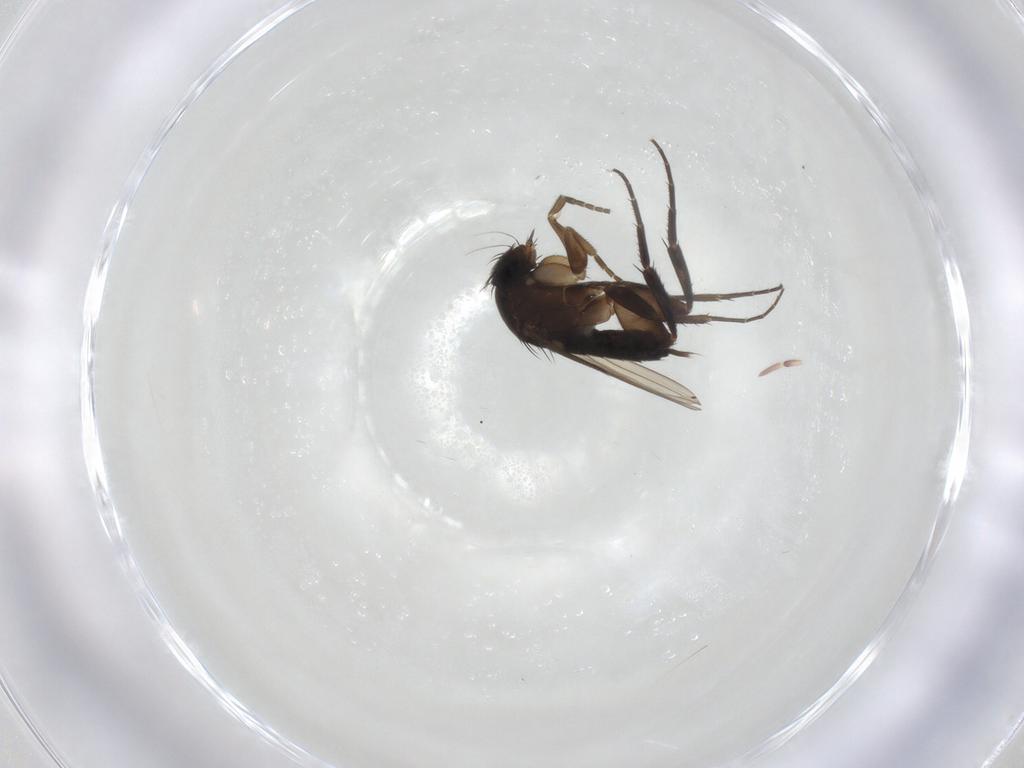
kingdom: Animalia
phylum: Arthropoda
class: Insecta
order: Diptera
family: Phoridae
